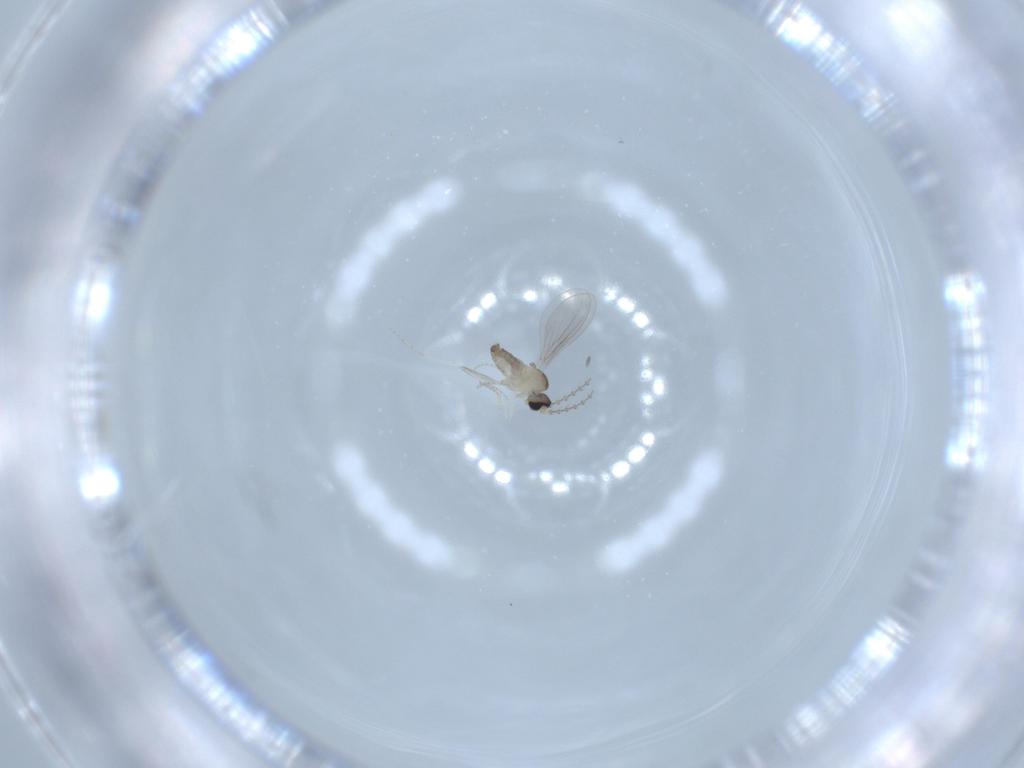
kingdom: Animalia
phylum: Arthropoda
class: Insecta
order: Diptera
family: Cecidomyiidae
